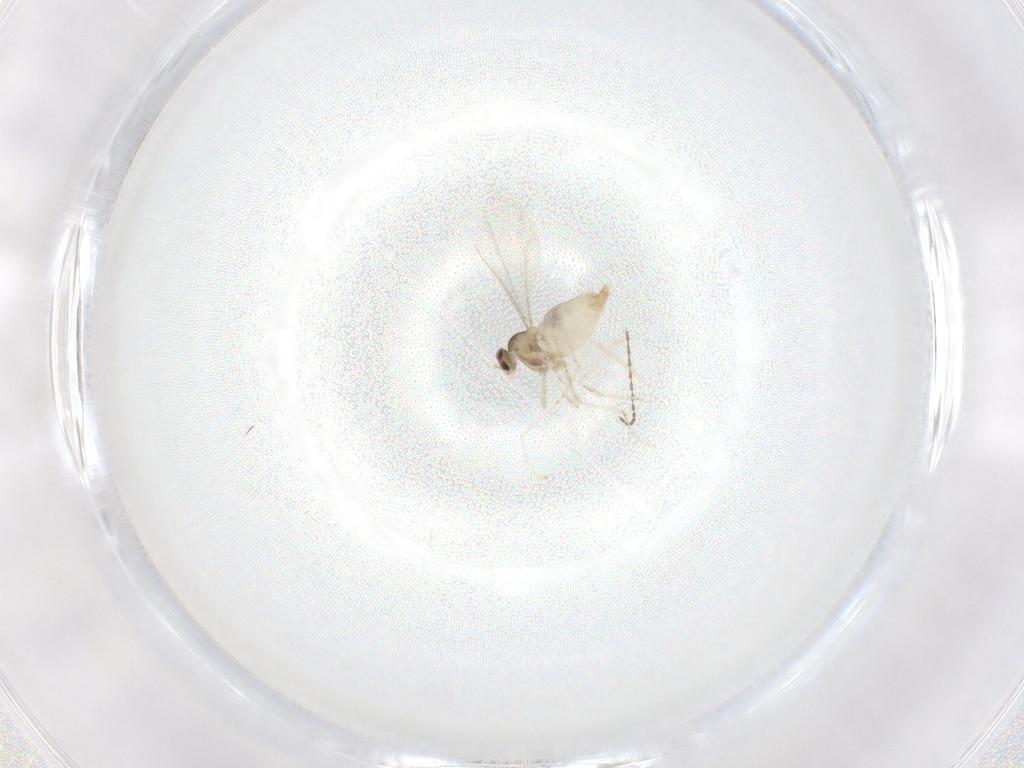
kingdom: Animalia
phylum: Arthropoda
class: Insecta
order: Diptera
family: Cecidomyiidae
